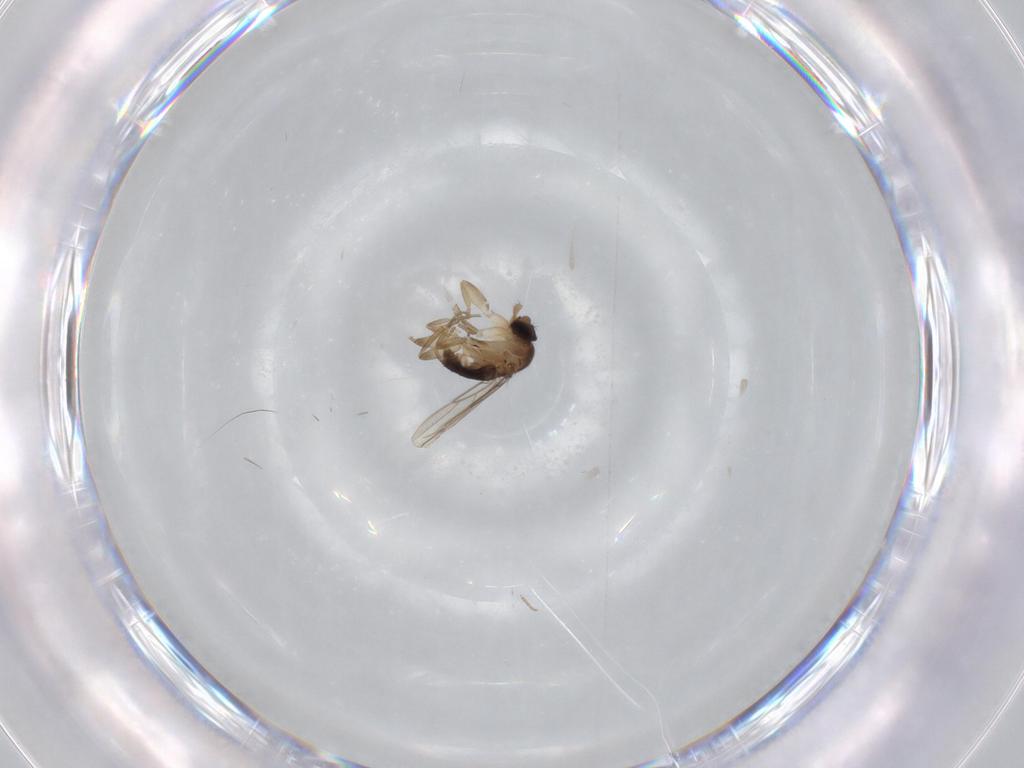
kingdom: Animalia
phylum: Arthropoda
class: Insecta
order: Diptera
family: Phoridae
